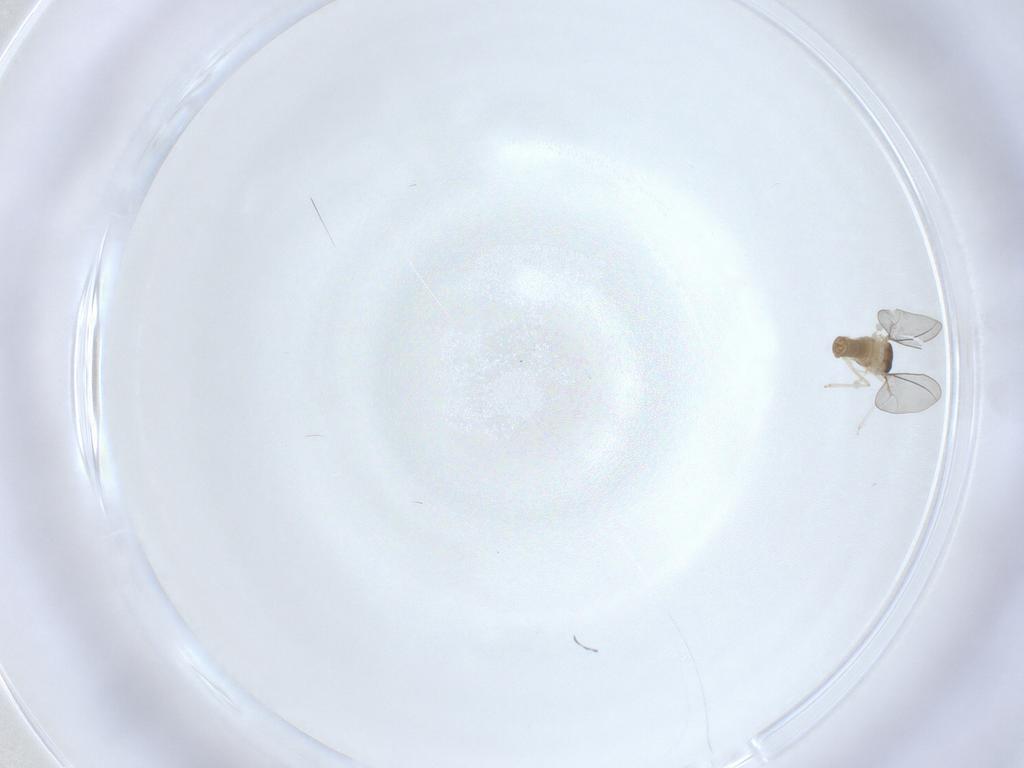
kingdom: Animalia
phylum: Arthropoda
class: Insecta
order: Diptera
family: Cecidomyiidae
